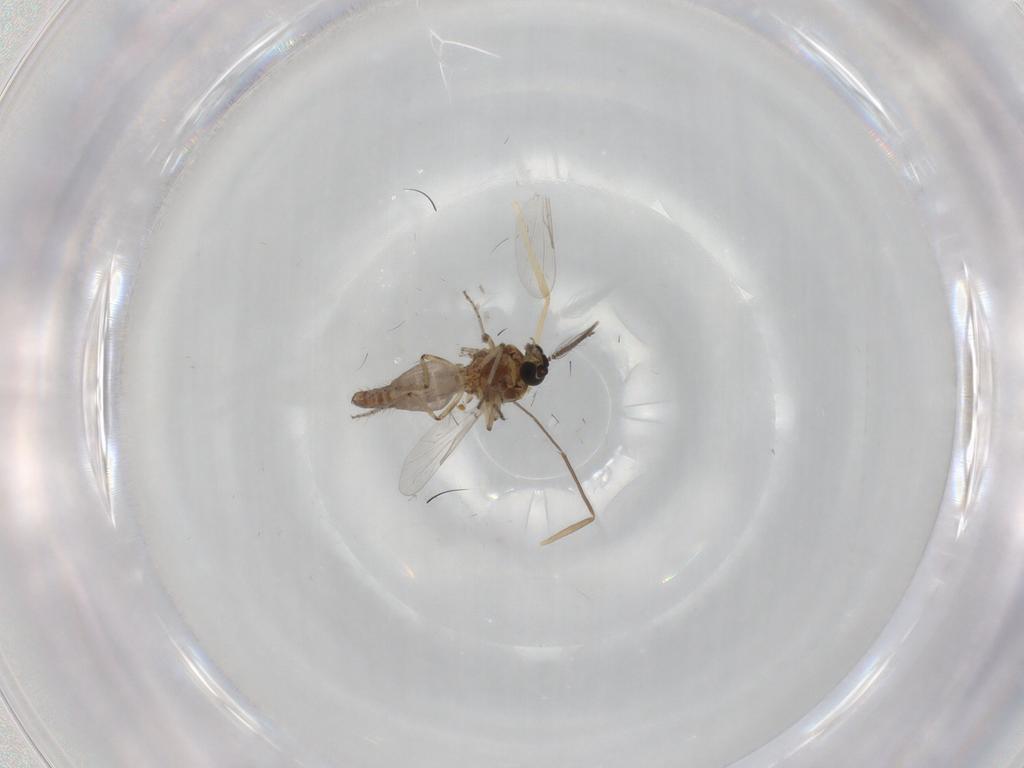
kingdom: Animalia
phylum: Arthropoda
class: Insecta
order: Diptera
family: Ceratopogonidae
